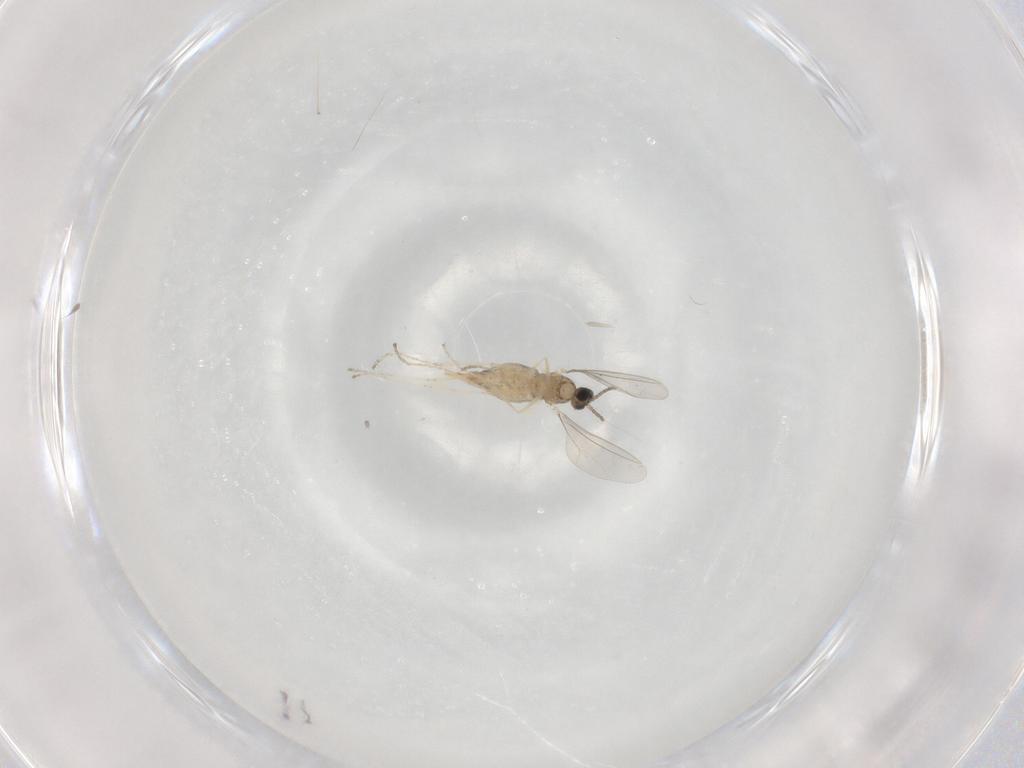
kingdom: Animalia
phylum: Arthropoda
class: Insecta
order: Diptera
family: Cecidomyiidae
